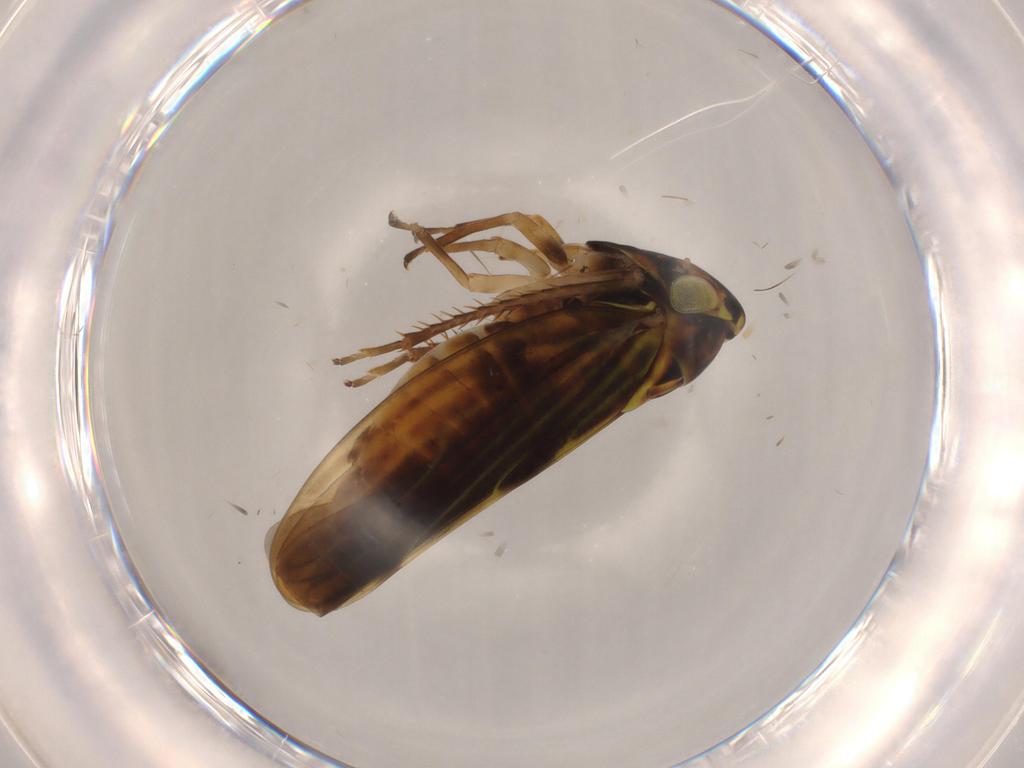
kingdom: Animalia
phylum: Arthropoda
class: Insecta
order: Hemiptera
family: Cicadellidae
